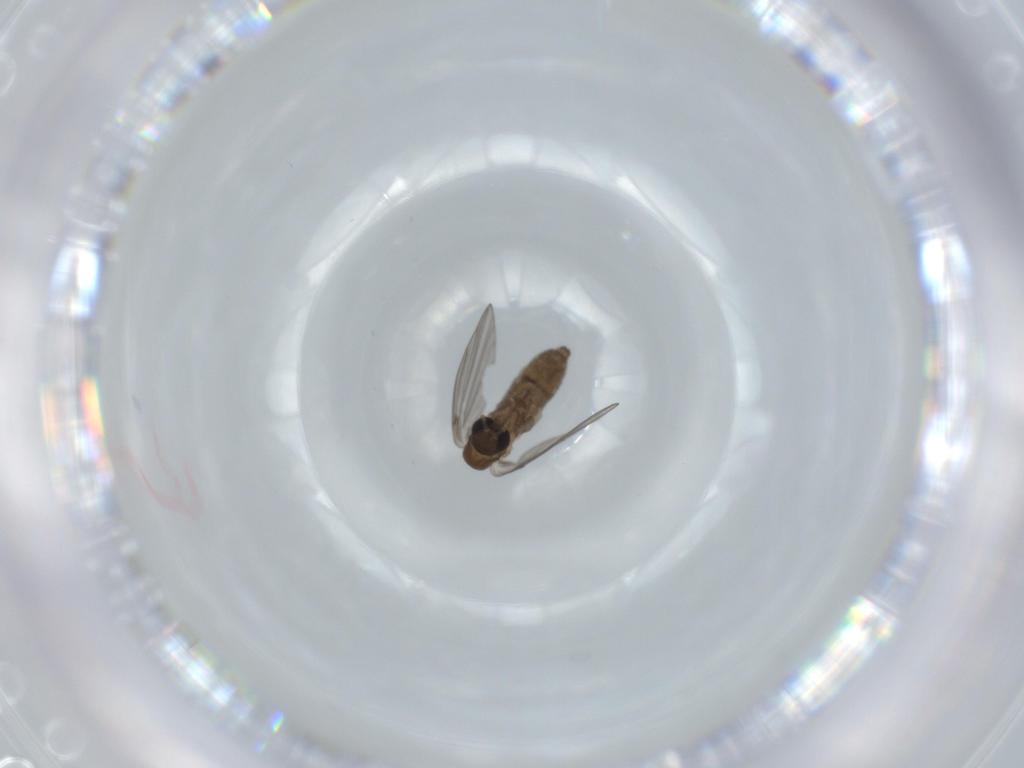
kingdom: Animalia
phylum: Arthropoda
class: Insecta
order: Diptera
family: Psychodidae
